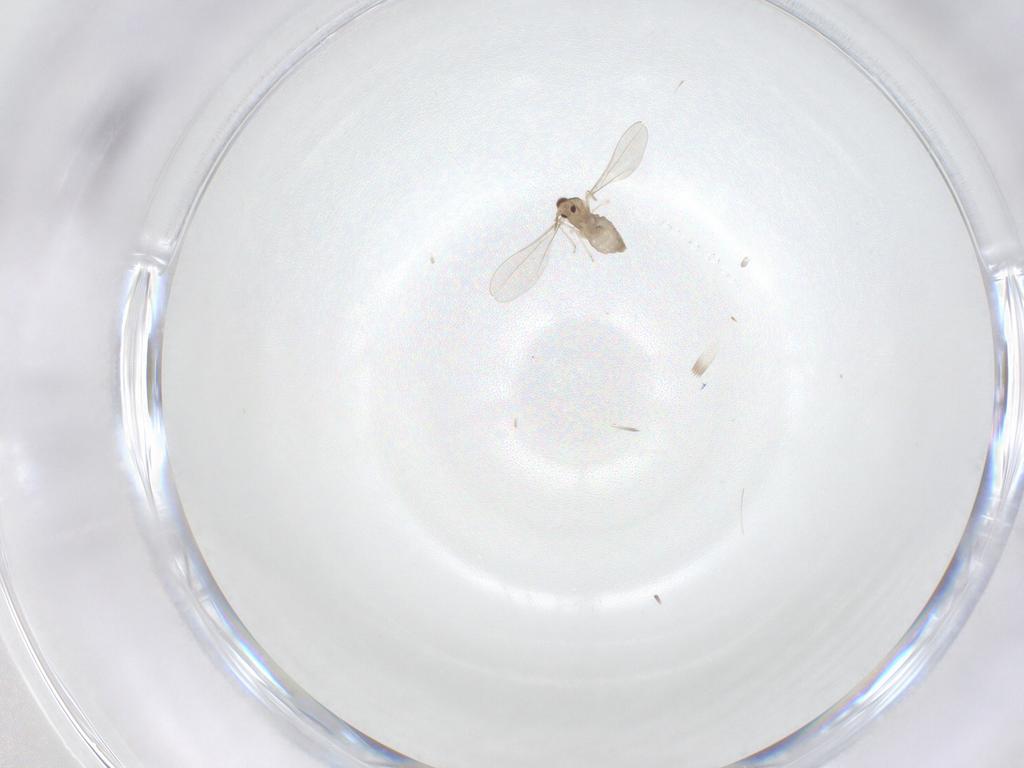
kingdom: Animalia
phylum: Arthropoda
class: Insecta
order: Diptera
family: Cecidomyiidae
